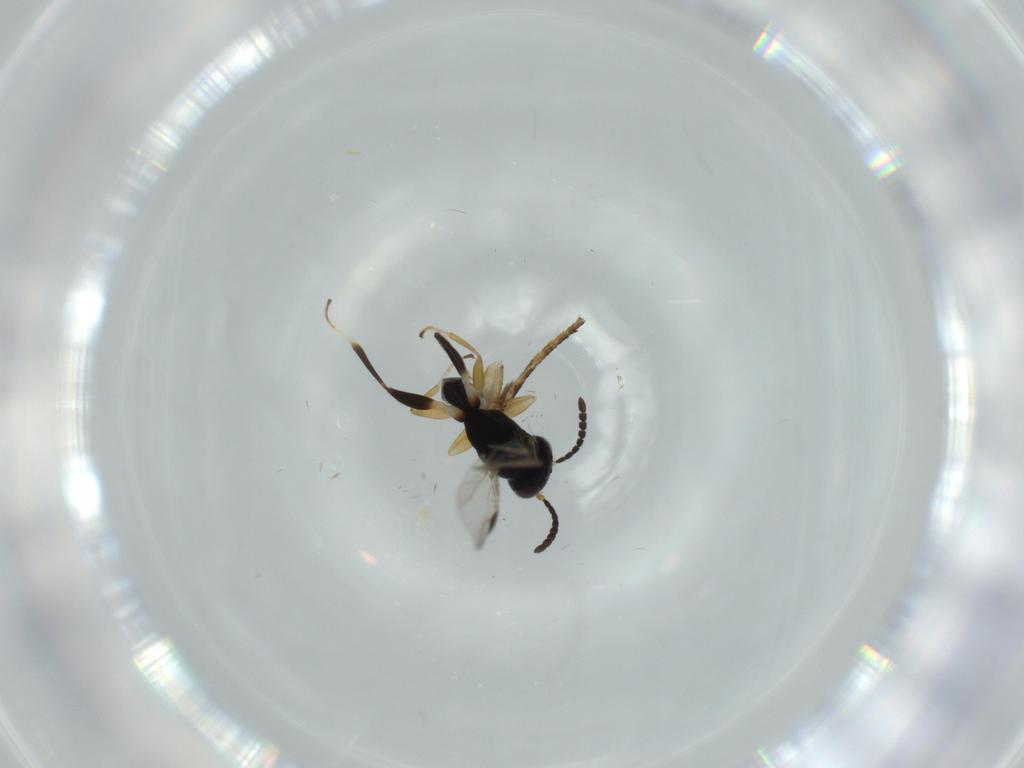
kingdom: Animalia
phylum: Arthropoda
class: Insecta
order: Hymenoptera
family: Dryinidae
